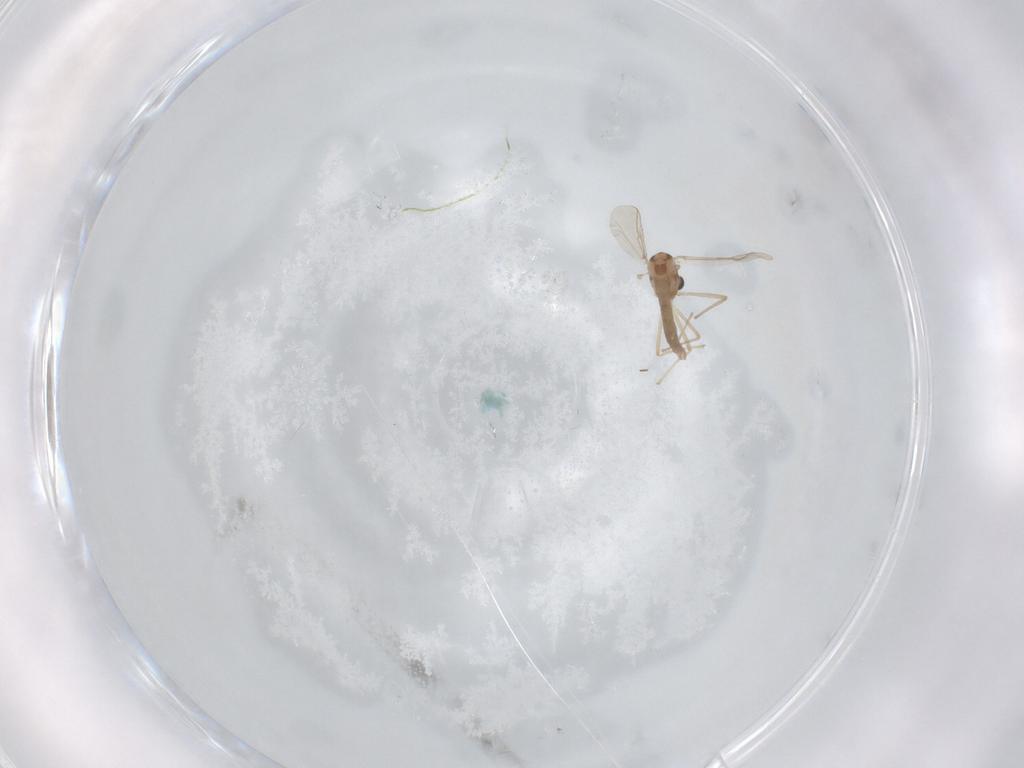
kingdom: Animalia
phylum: Arthropoda
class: Insecta
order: Diptera
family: Chironomidae
